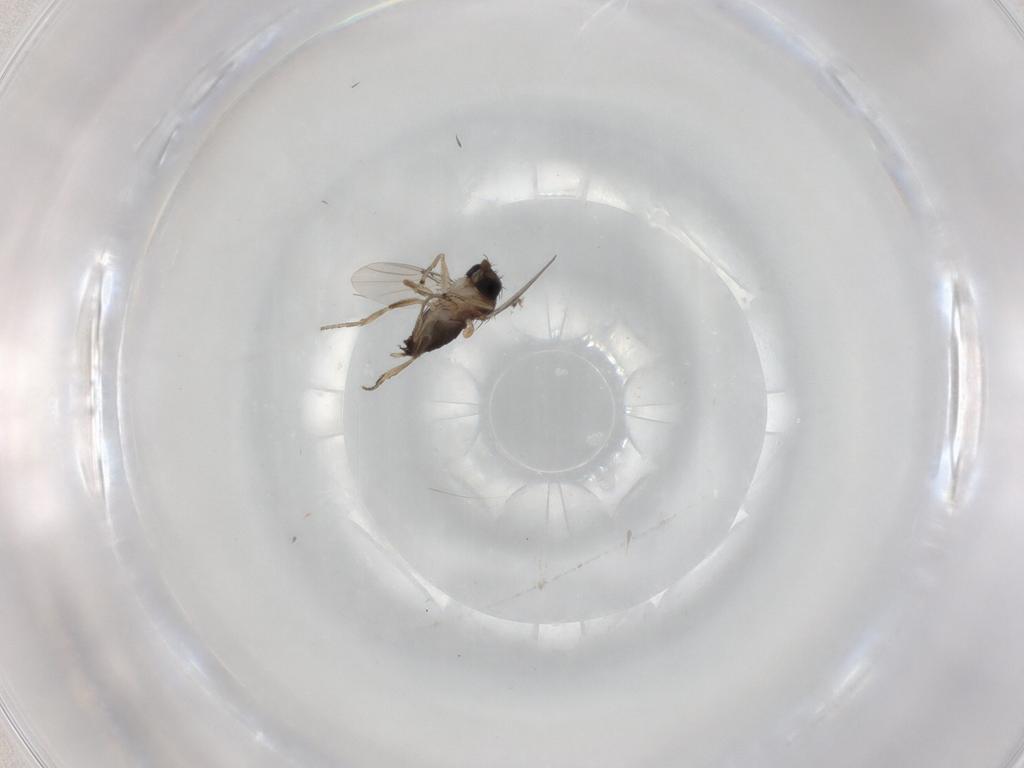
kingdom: Animalia
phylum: Arthropoda
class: Insecta
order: Diptera
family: Phoridae
